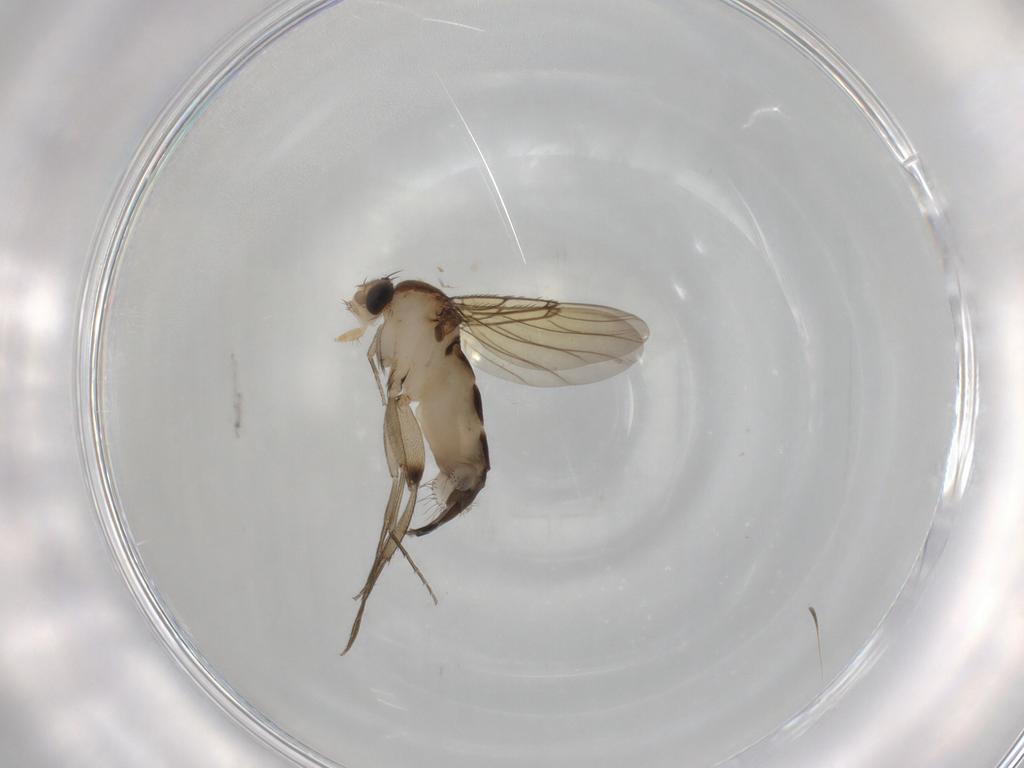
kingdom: Animalia
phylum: Arthropoda
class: Insecta
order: Diptera
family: Phoridae
